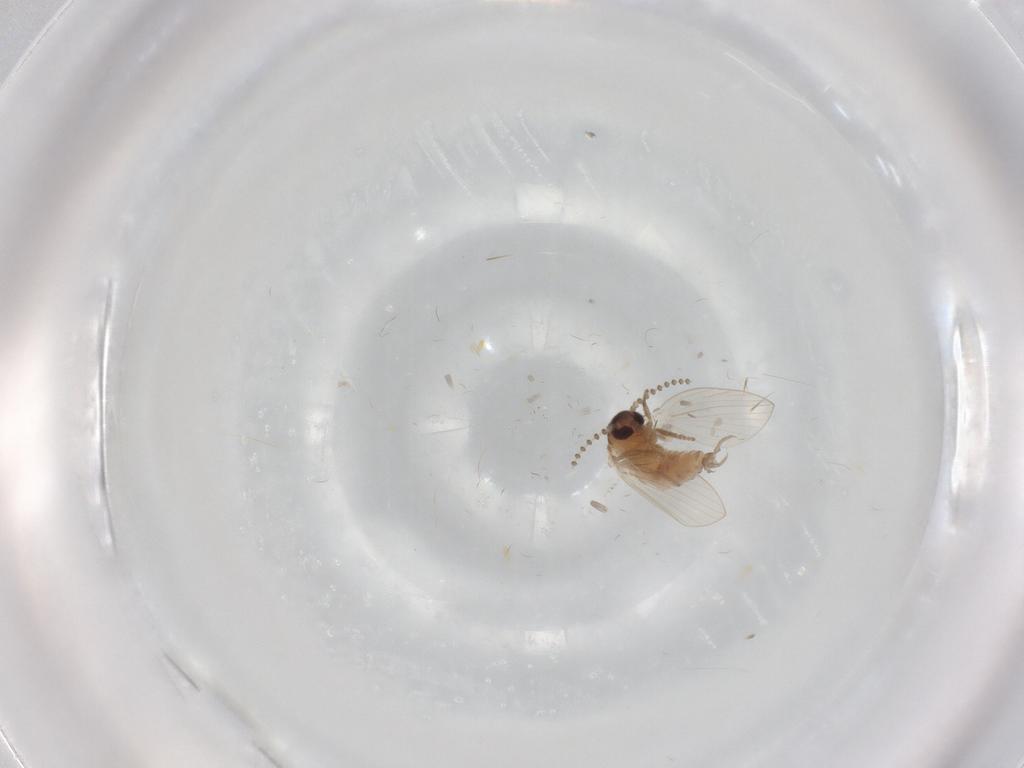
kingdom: Animalia
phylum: Arthropoda
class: Insecta
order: Diptera
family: Psychodidae
